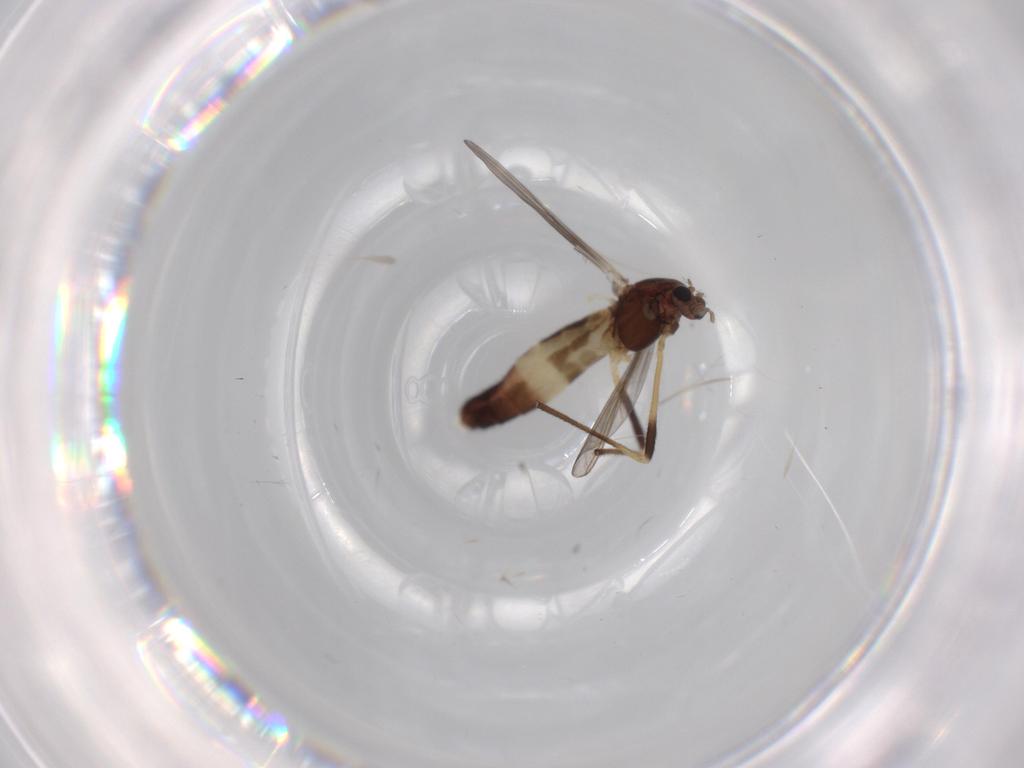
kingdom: Animalia
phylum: Arthropoda
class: Insecta
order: Diptera
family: Chironomidae
